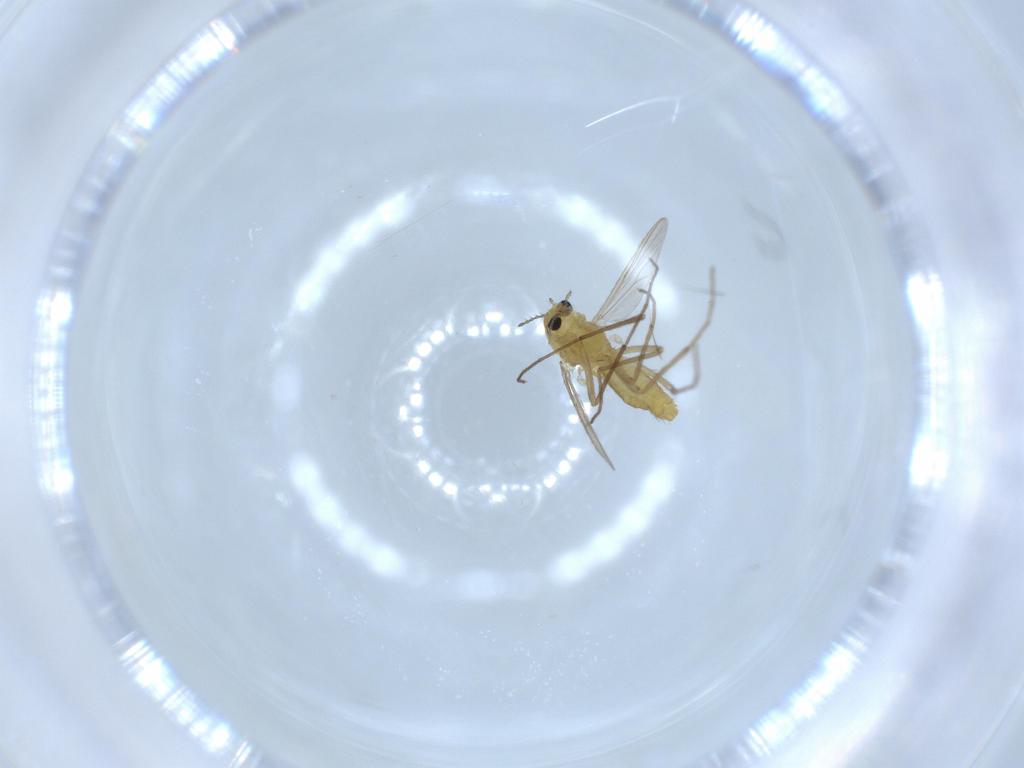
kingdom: Animalia
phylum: Arthropoda
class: Insecta
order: Diptera
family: Chironomidae
